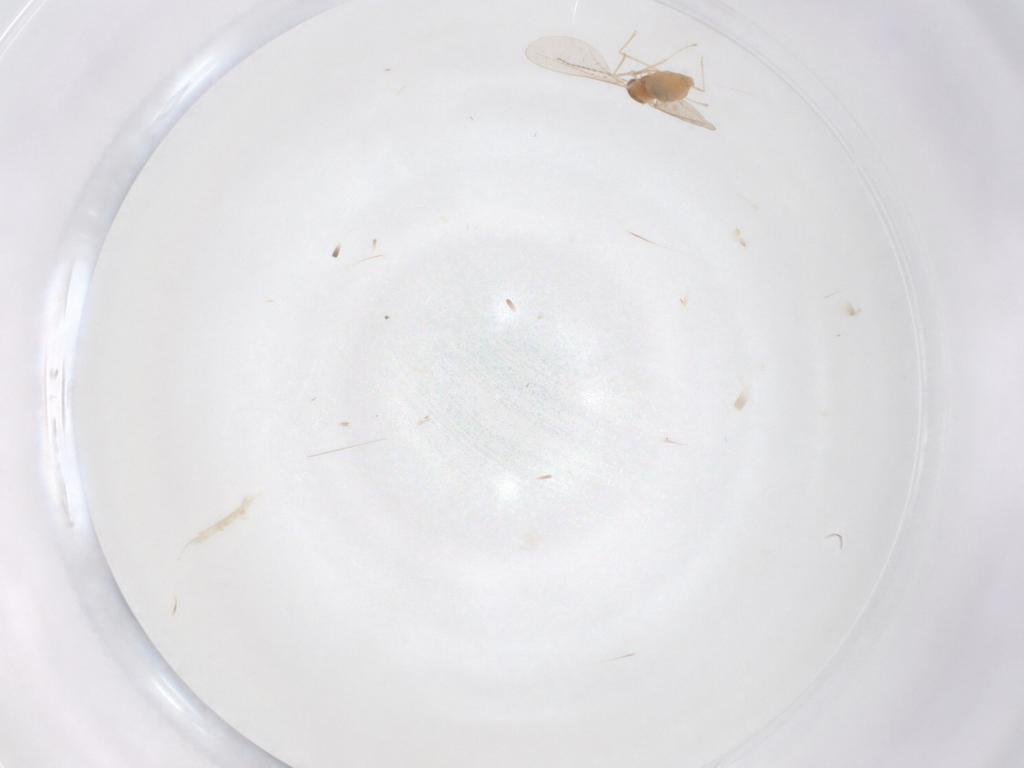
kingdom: Animalia
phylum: Arthropoda
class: Insecta
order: Diptera
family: Cecidomyiidae
